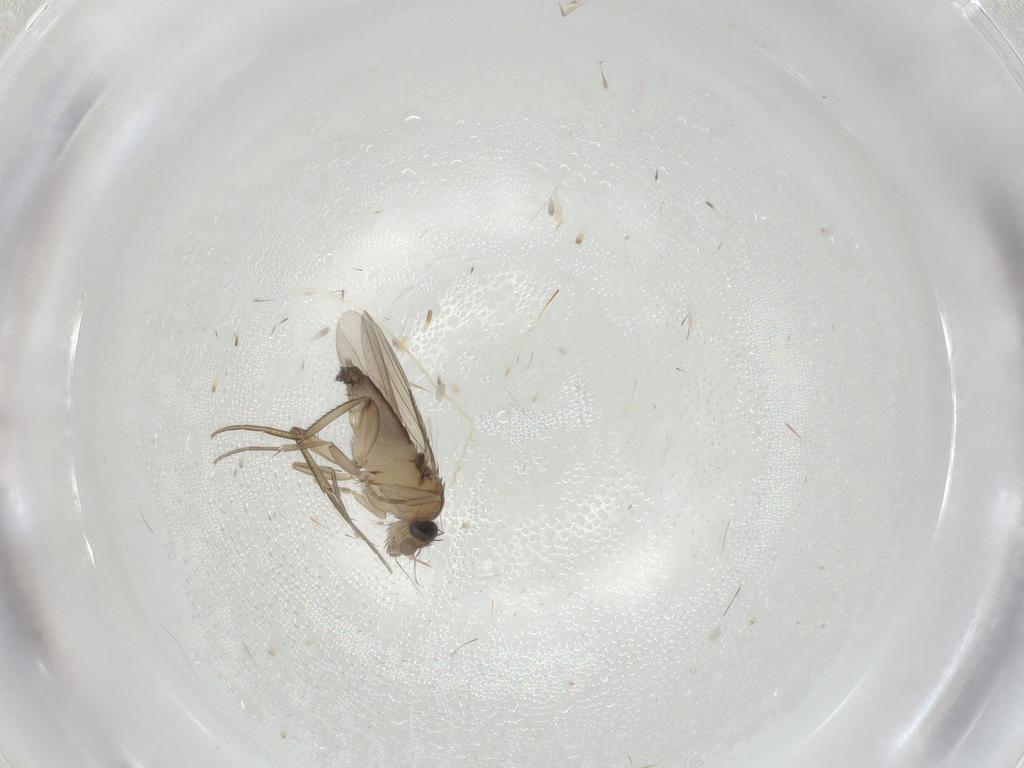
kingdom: Animalia
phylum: Arthropoda
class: Insecta
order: Diptera
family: Phoridae
